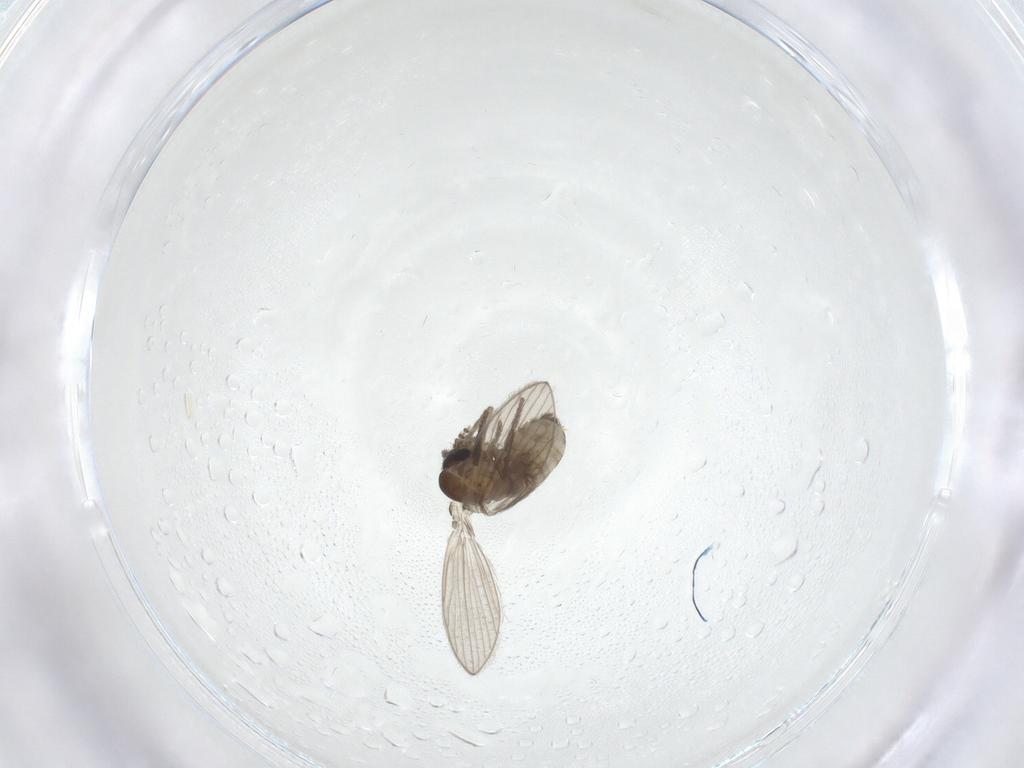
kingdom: Animalia
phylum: Arthropoda
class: Insecta
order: Diptera
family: Psychodidae
